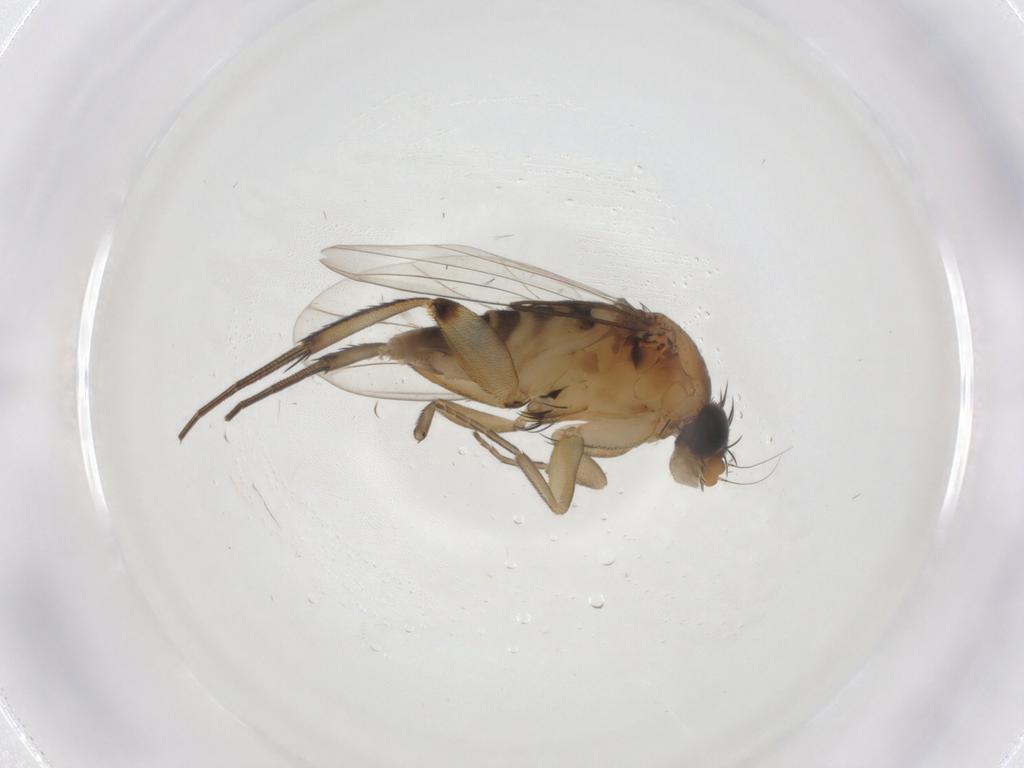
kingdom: Animalia
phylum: Arthropoda
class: Insecta
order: Diptera
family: Phoridae
